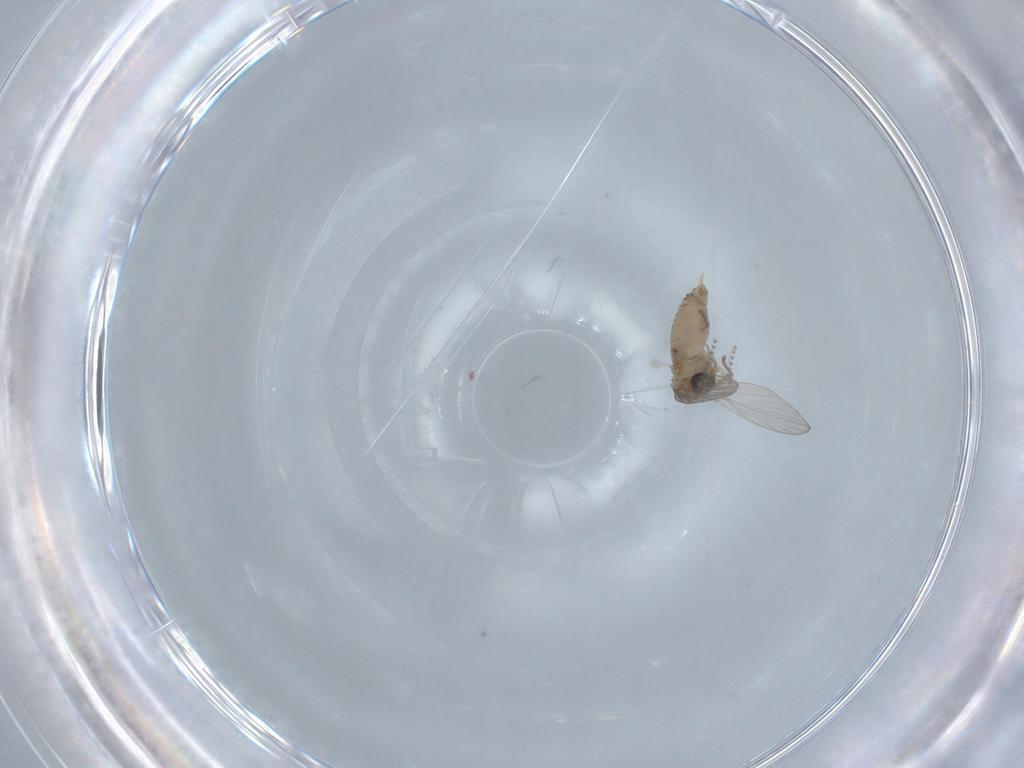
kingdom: Animalia
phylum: Arthropoda
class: Insecta
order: Diptera
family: Psychodidae
